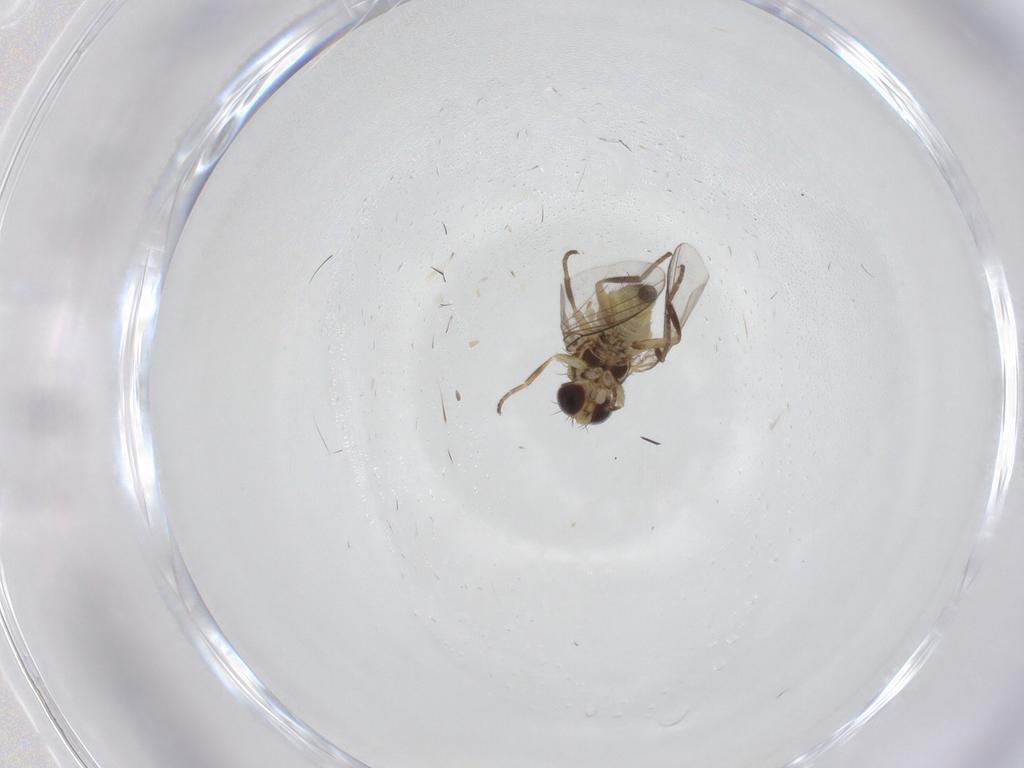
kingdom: Animalia
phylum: Arthropoda
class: Insecta
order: Diptera
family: Agromyzidae
